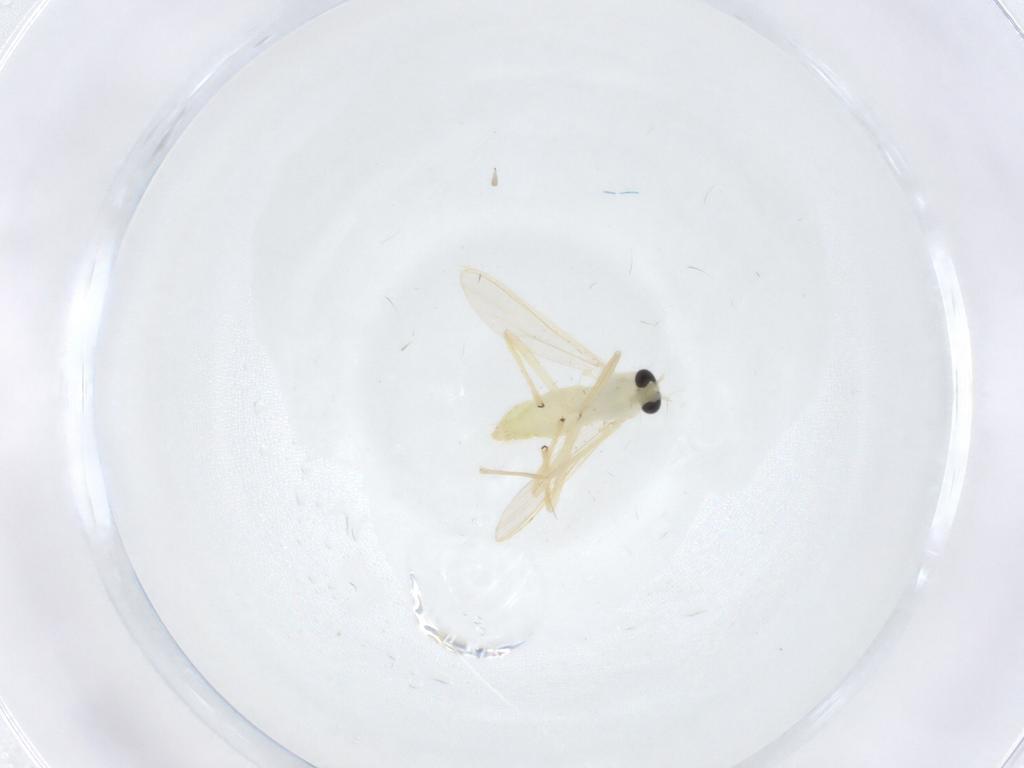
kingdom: Animalia
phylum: Arthropoda
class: Insecta
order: Diptera
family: Chironomidae
